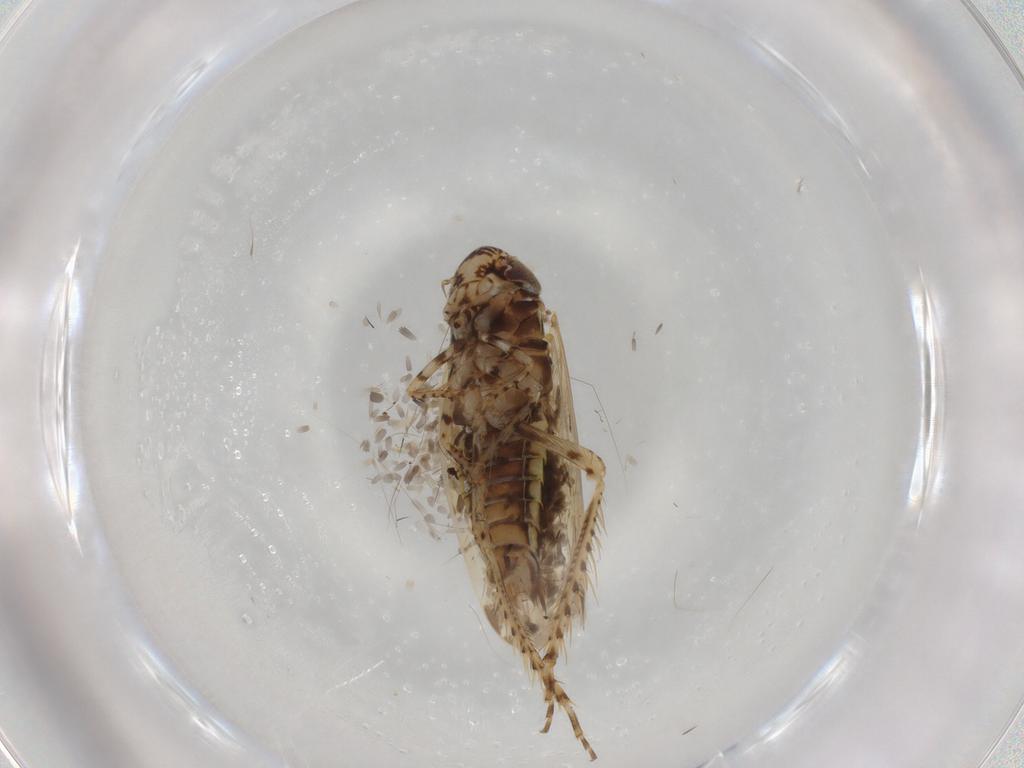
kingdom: Animalia
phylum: Arthropoda
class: Insecta
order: Hemiptera
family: Cicadellidae
